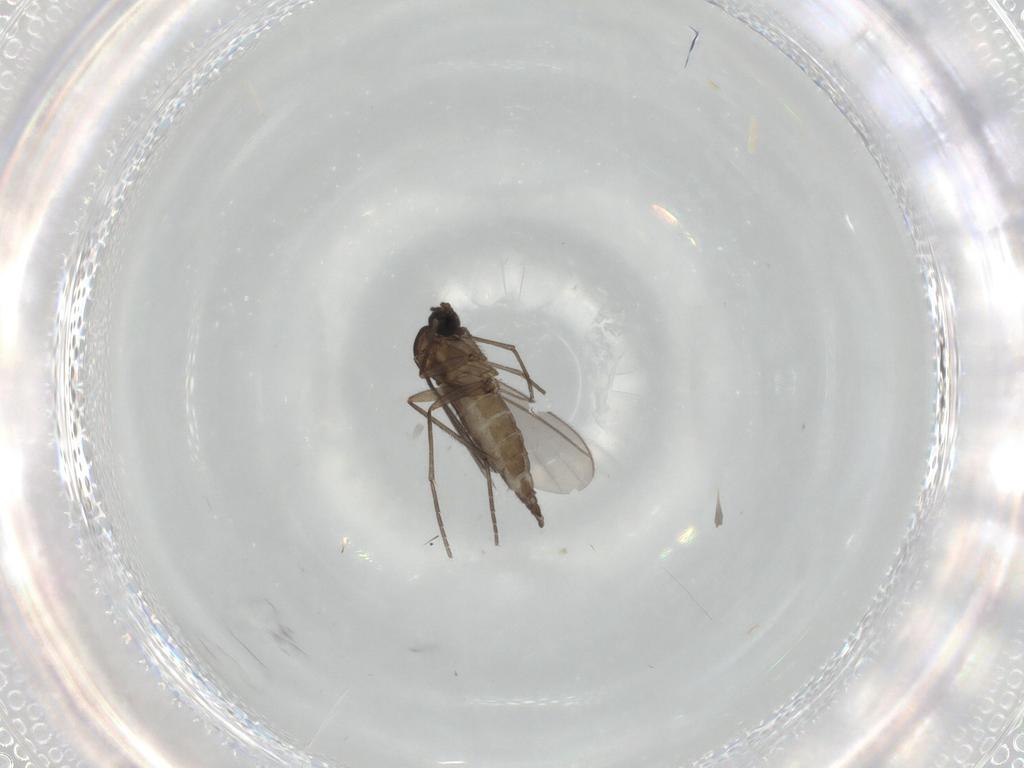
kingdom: Animalia
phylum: Arthropoda
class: Insecta
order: Diptera
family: Sciaridae
